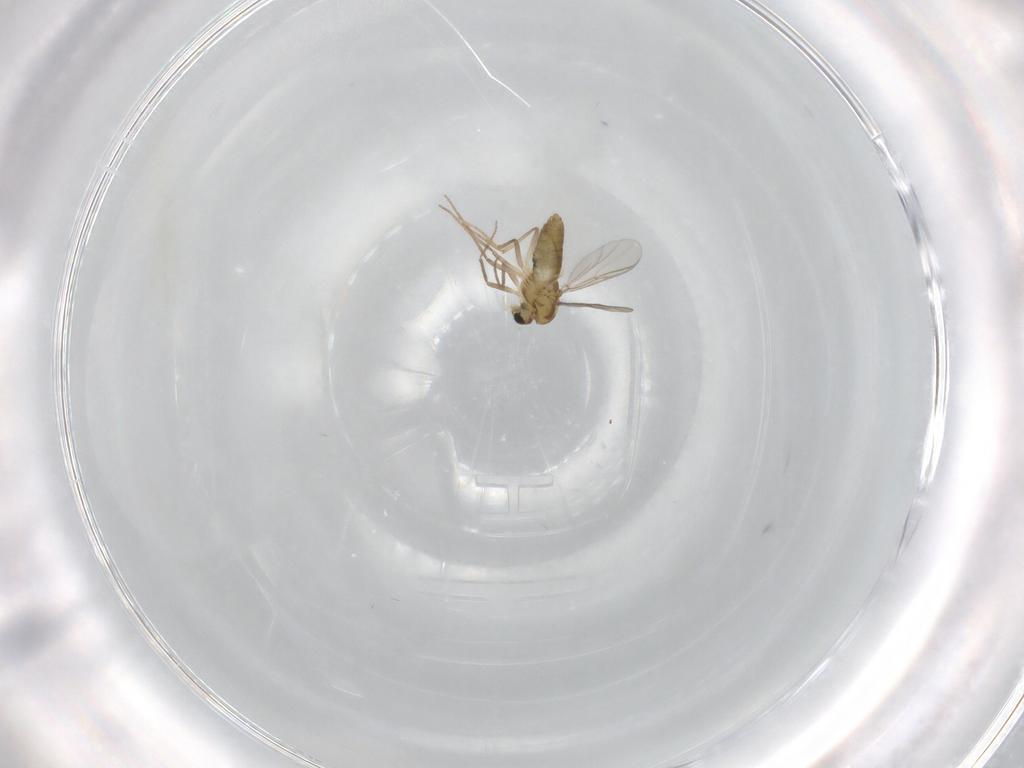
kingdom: Animalia
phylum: Arthropoda
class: Insecta
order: Diptera
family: Chironomidae
